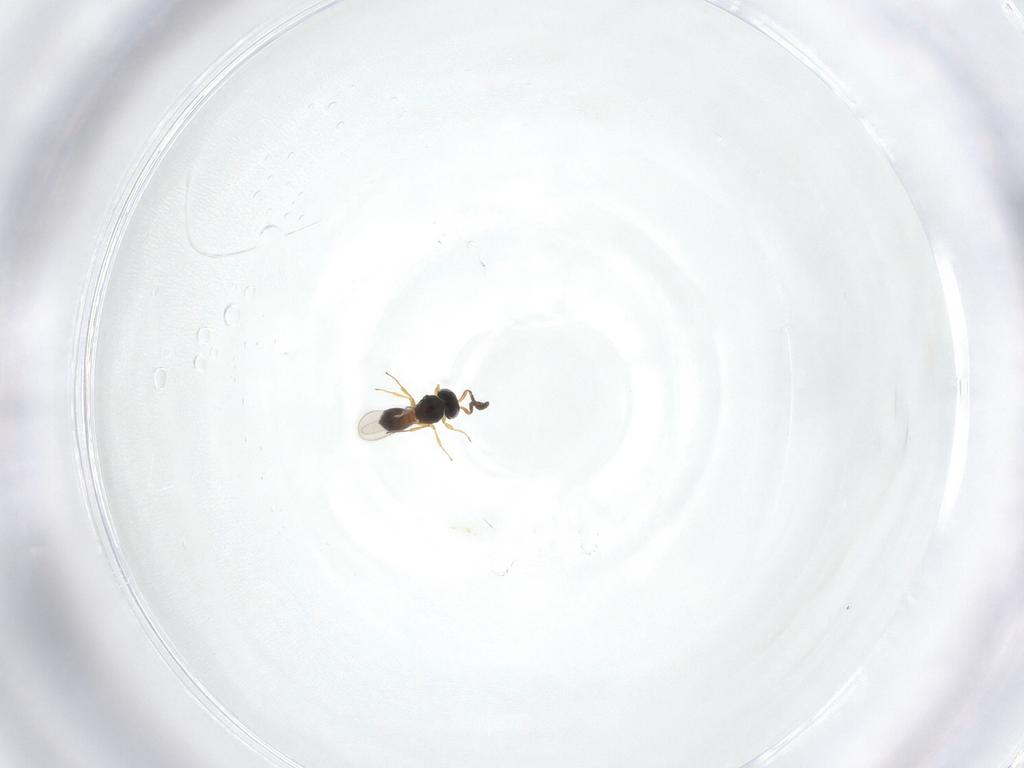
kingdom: Animalia
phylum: Arthropoda
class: Insecta
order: Hymenoptera
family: Scelionidae
